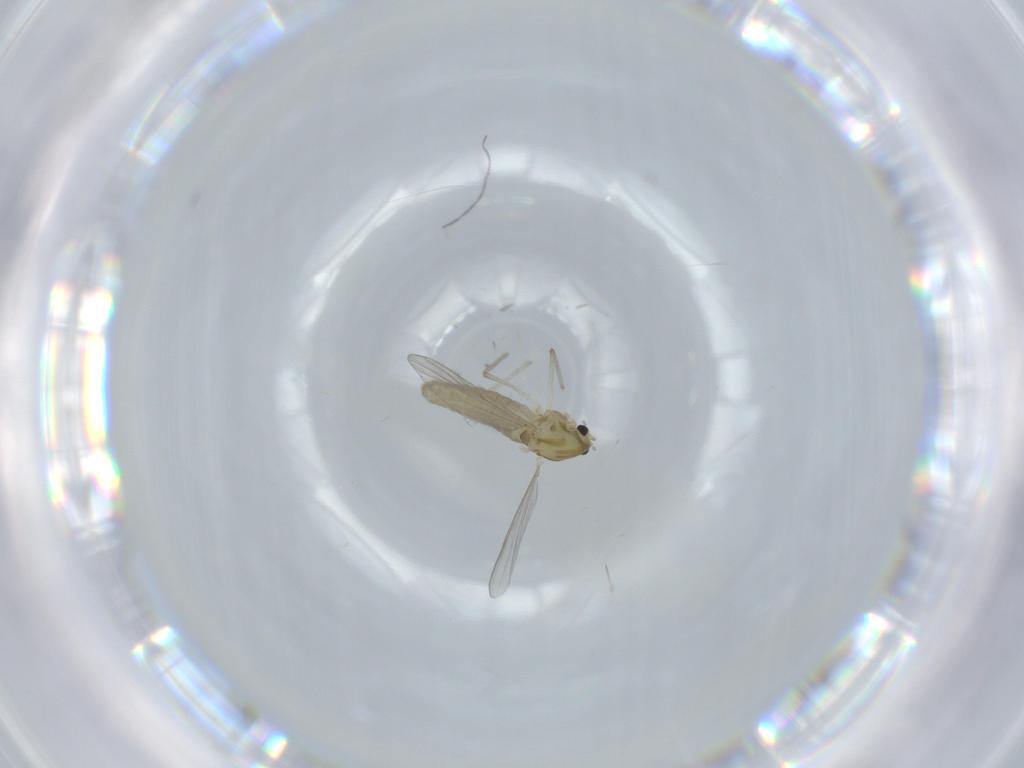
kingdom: Animalia
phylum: Arthropoda
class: Insecta
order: Diptera
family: Chironomidae
